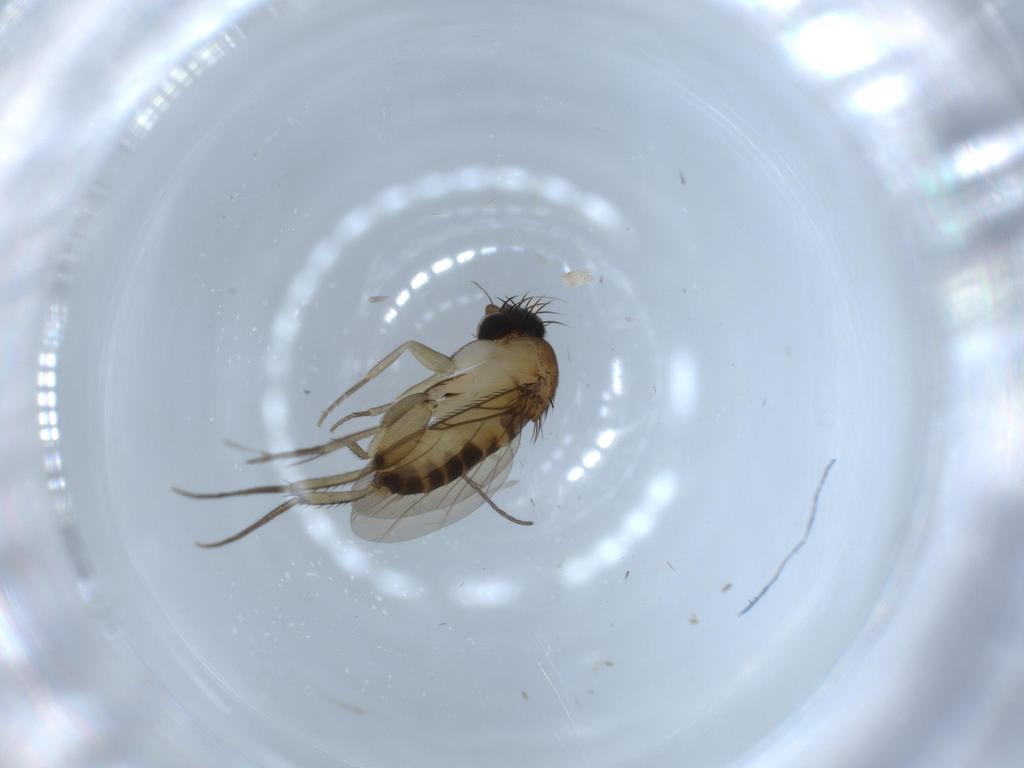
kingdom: Animalia
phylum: Arthropoda
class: Insecta
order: Diptera
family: Phoridae
